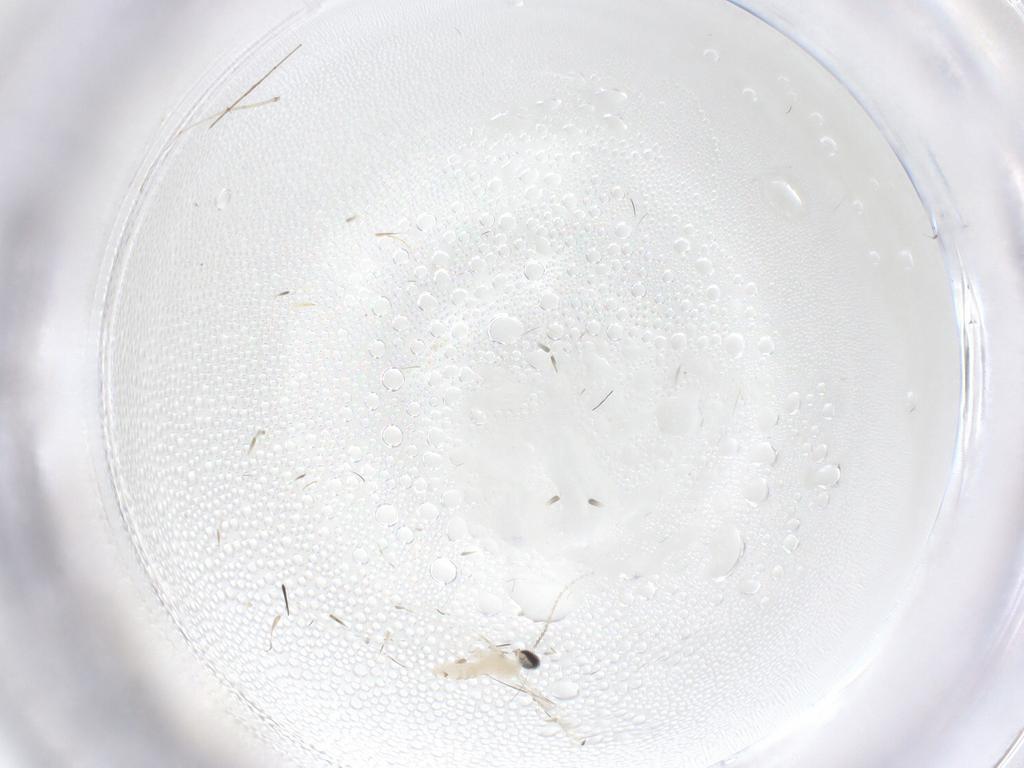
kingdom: Animalia
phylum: Arthropoda
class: Insecta
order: Diptera
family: Cecidomyiidae
